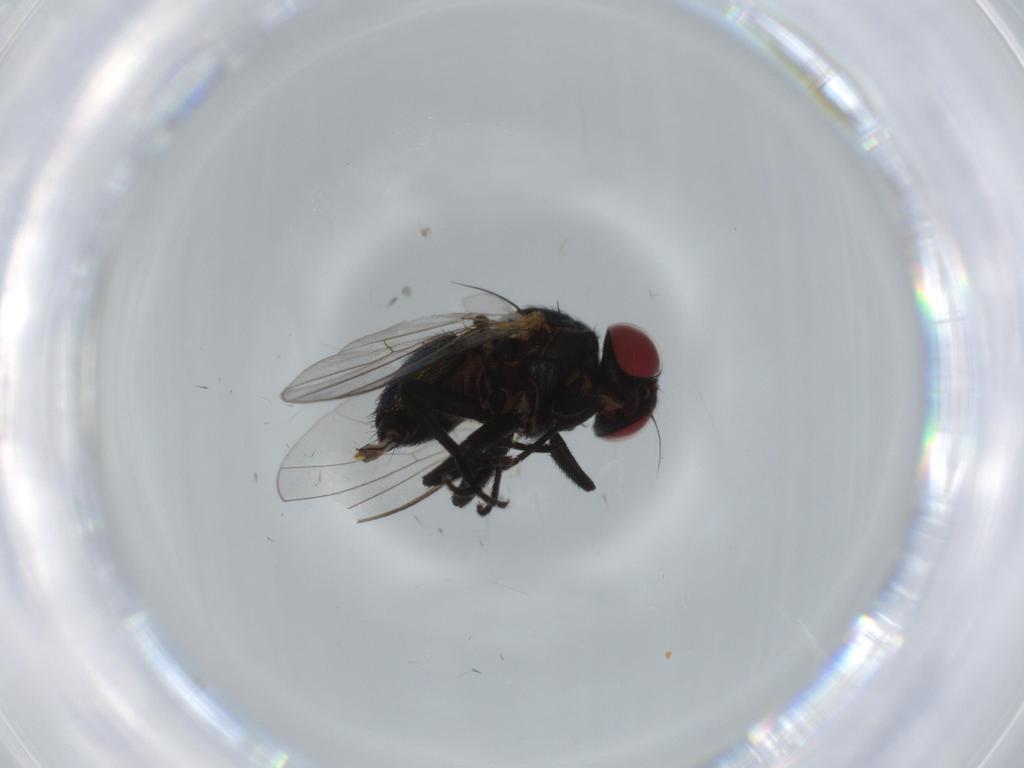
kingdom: Animalia
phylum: Arthropoda
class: Insecta
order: Diptera
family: Agromyzidae
